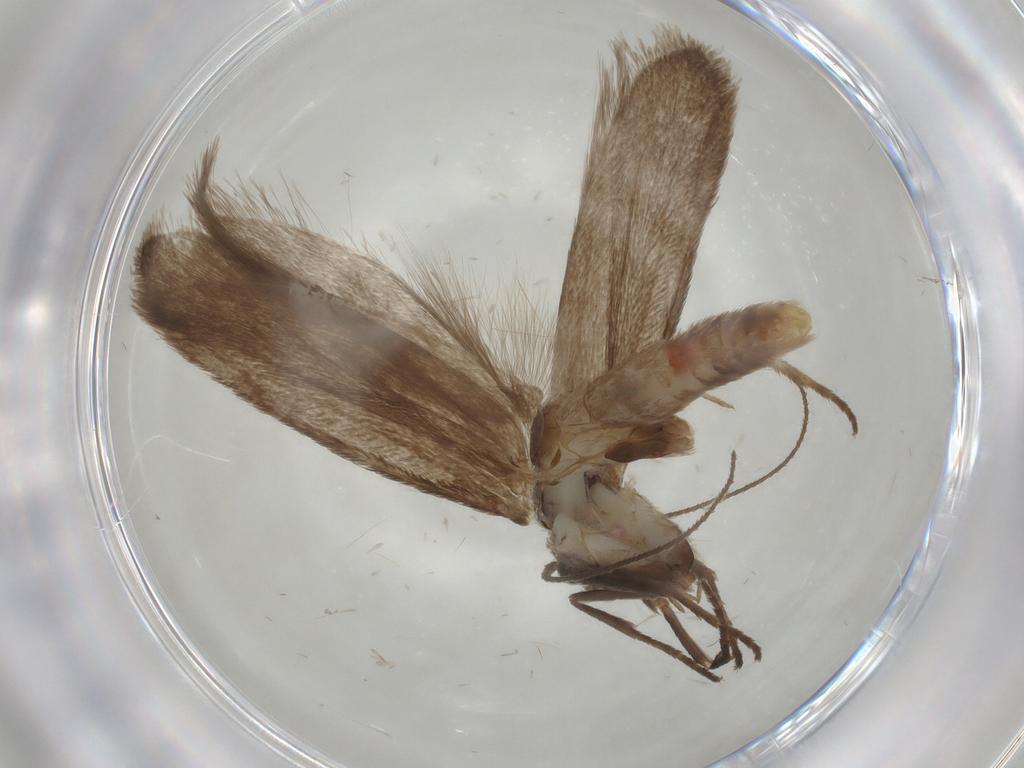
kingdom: Animalia
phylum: Arthropoda
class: Insecta
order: Lepidoptera
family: Limacodidae
